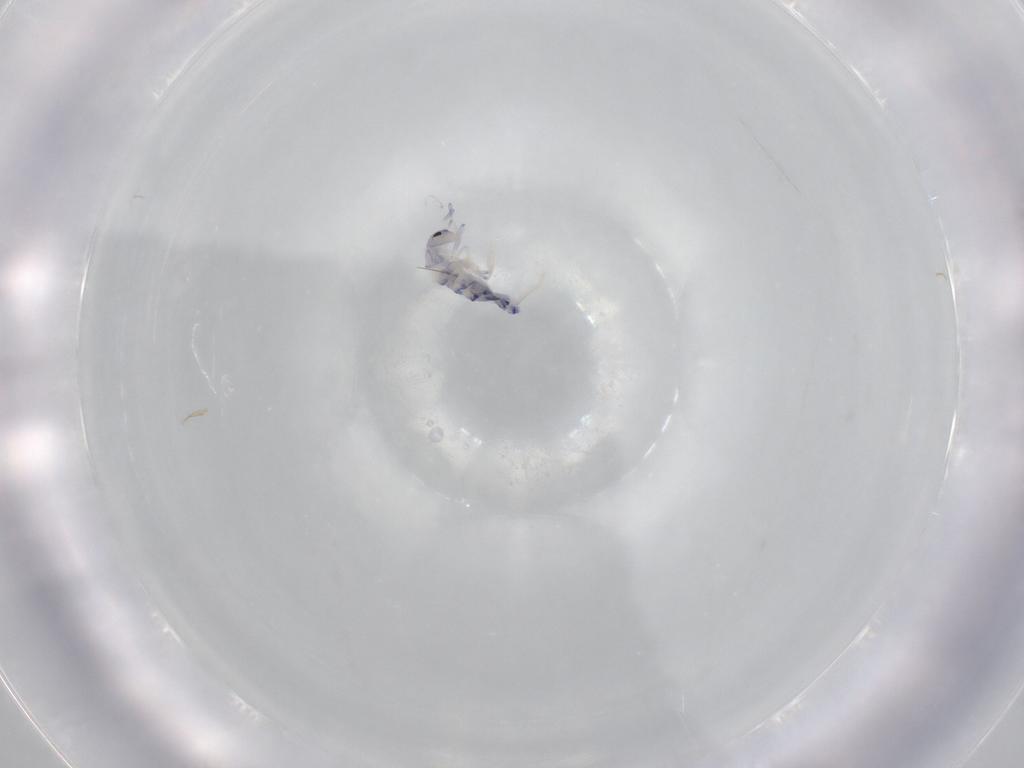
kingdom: Animalia
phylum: Arthropoda
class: Collembola
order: Entomobryomorpha
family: Entomobryidae
